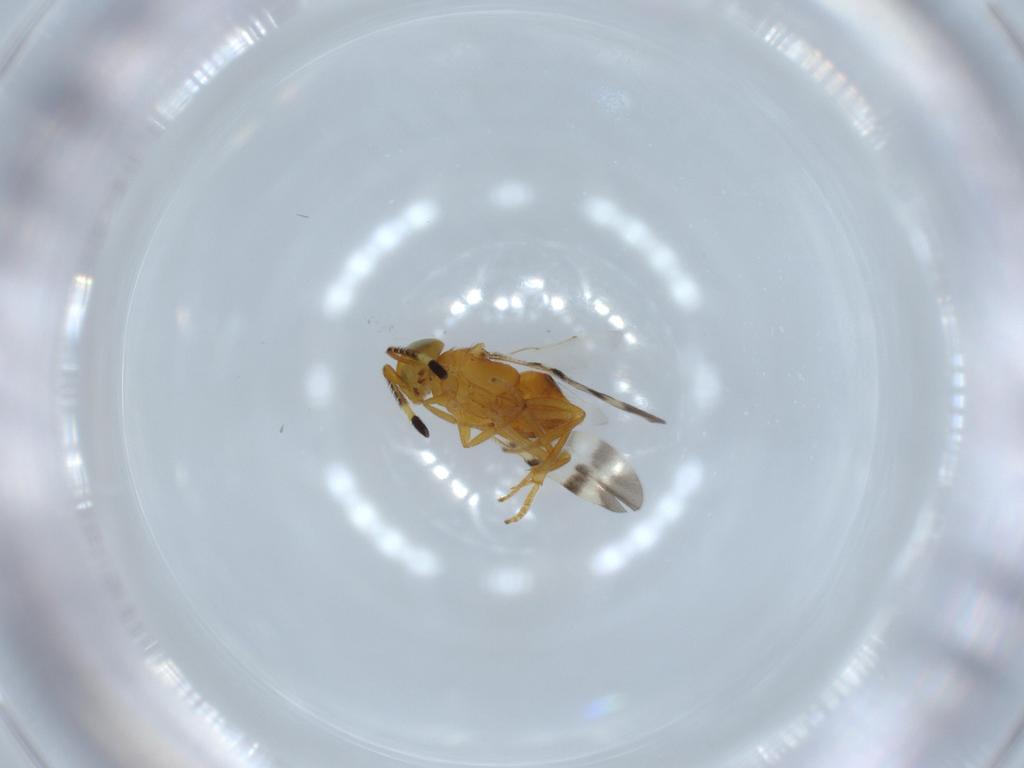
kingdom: Animalia
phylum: Arthropoda
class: Insecta
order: Hymenoptera
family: Scelionidae
